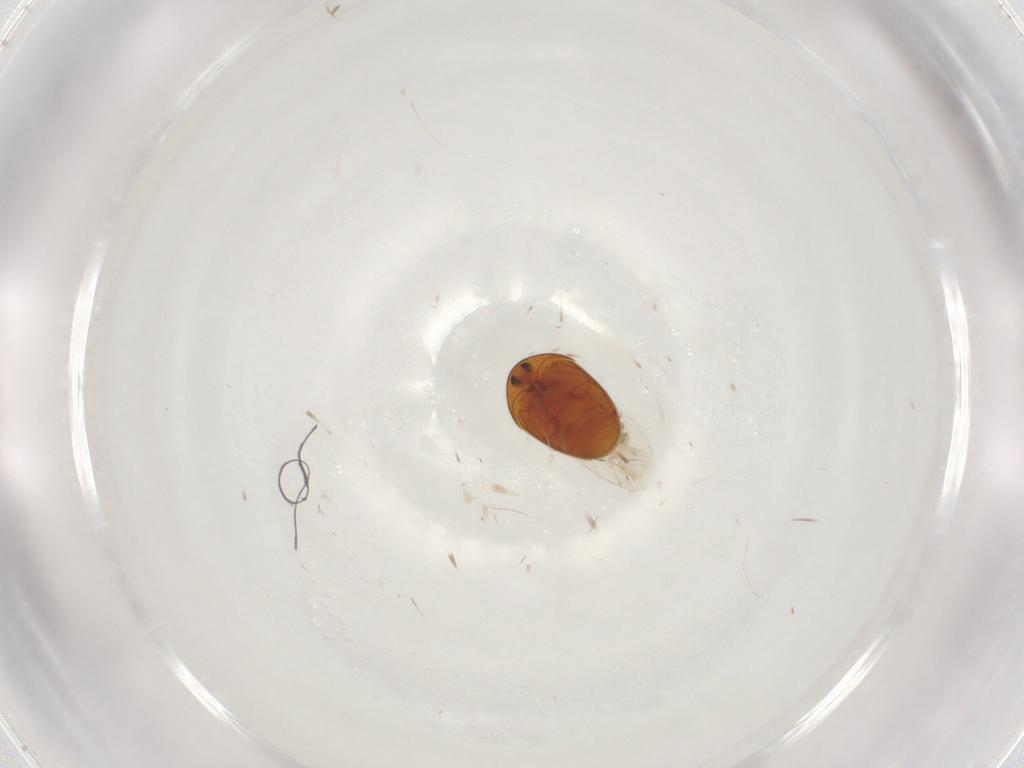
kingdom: Animalia
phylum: Arthropoda
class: Insecta
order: Coleoptera
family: Corylophidae
